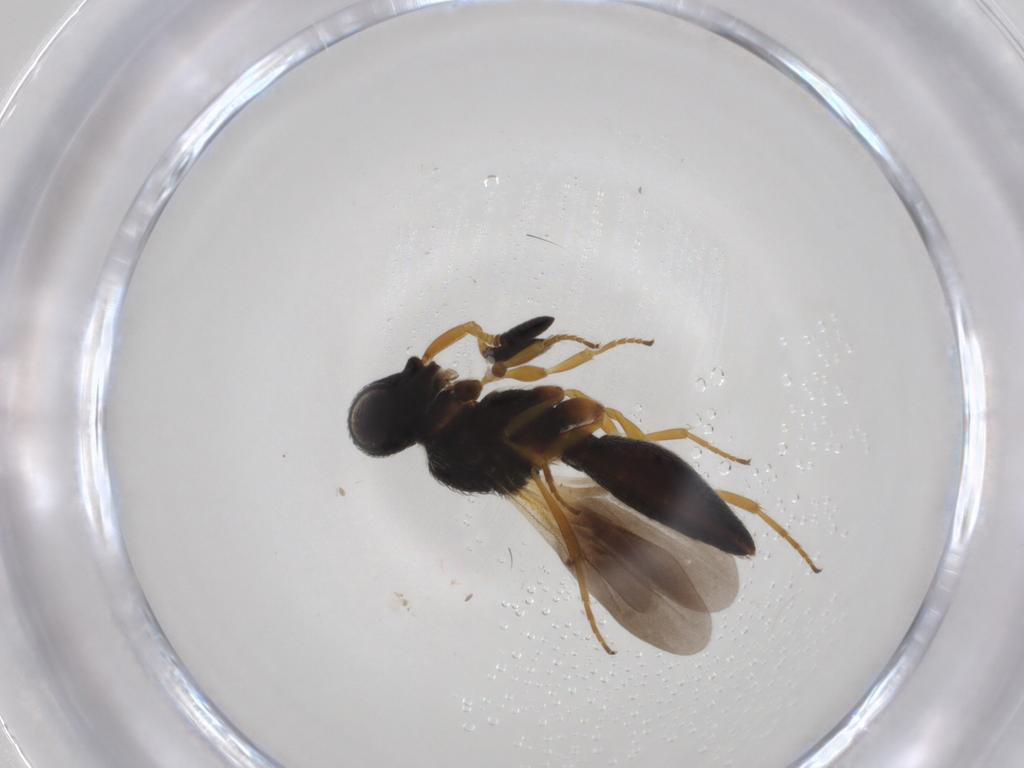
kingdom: Animalia
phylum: Arthropoda
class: Insecta
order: Hymenoptera
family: Scelionidae
